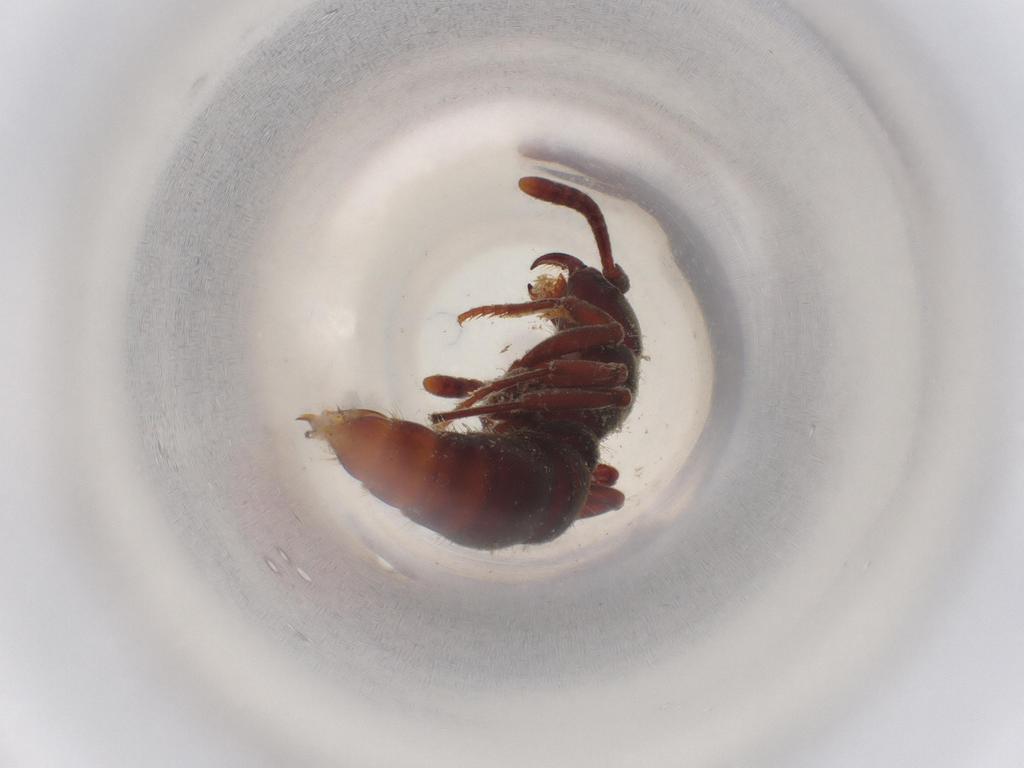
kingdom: Animalia
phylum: Arthropoda
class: Insecta
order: Hymenoptera
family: Formicidae
